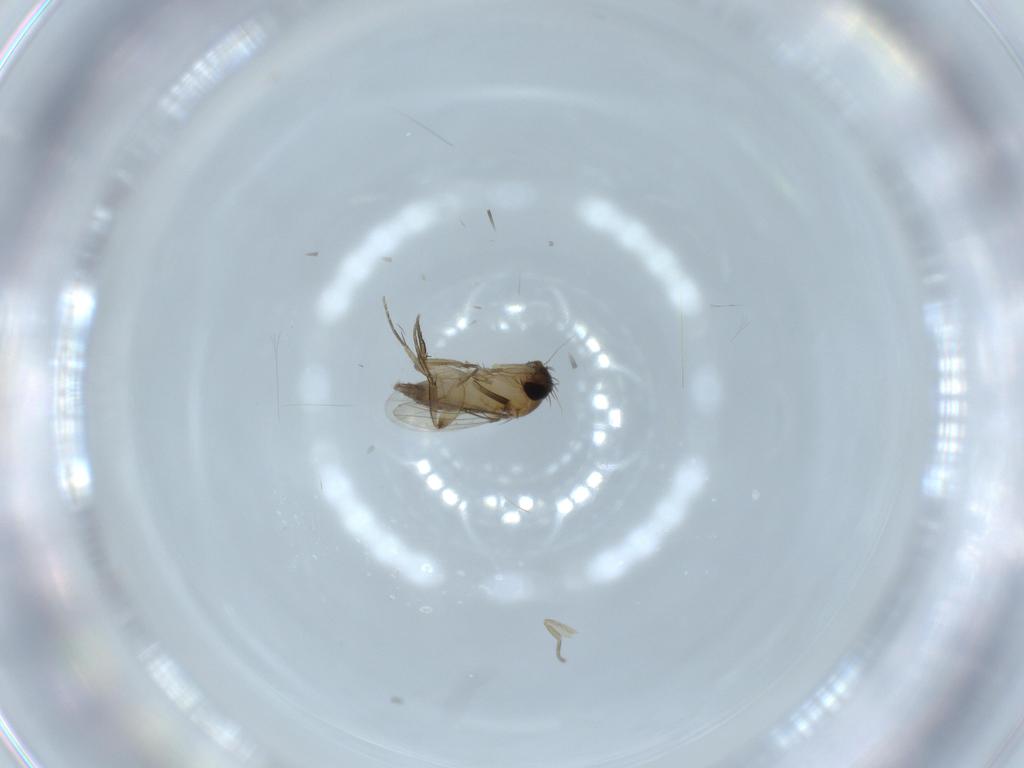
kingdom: Animalia
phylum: Arthropoda
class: Insecta
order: Diptera
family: Phoridae
